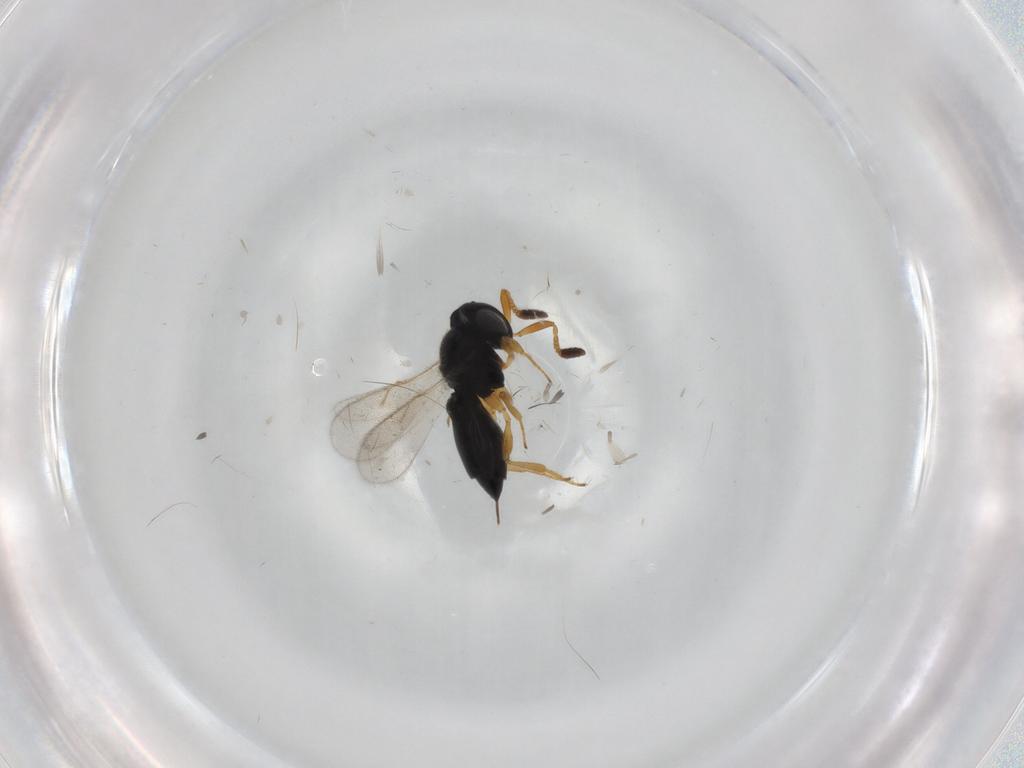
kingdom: Animalia
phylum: Arthropoda
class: Insecta
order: Hymenoptera
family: Scelionidae
